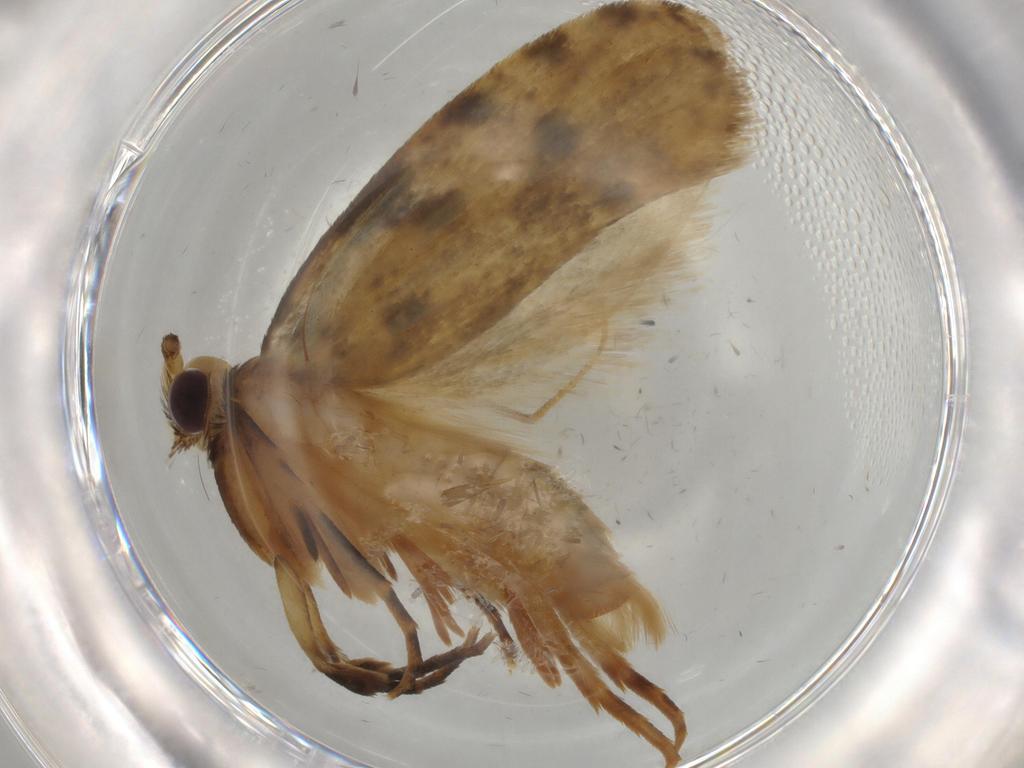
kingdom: Animalia
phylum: Arthropoda
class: Insecta
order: Lepidoptera
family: Tineidae
